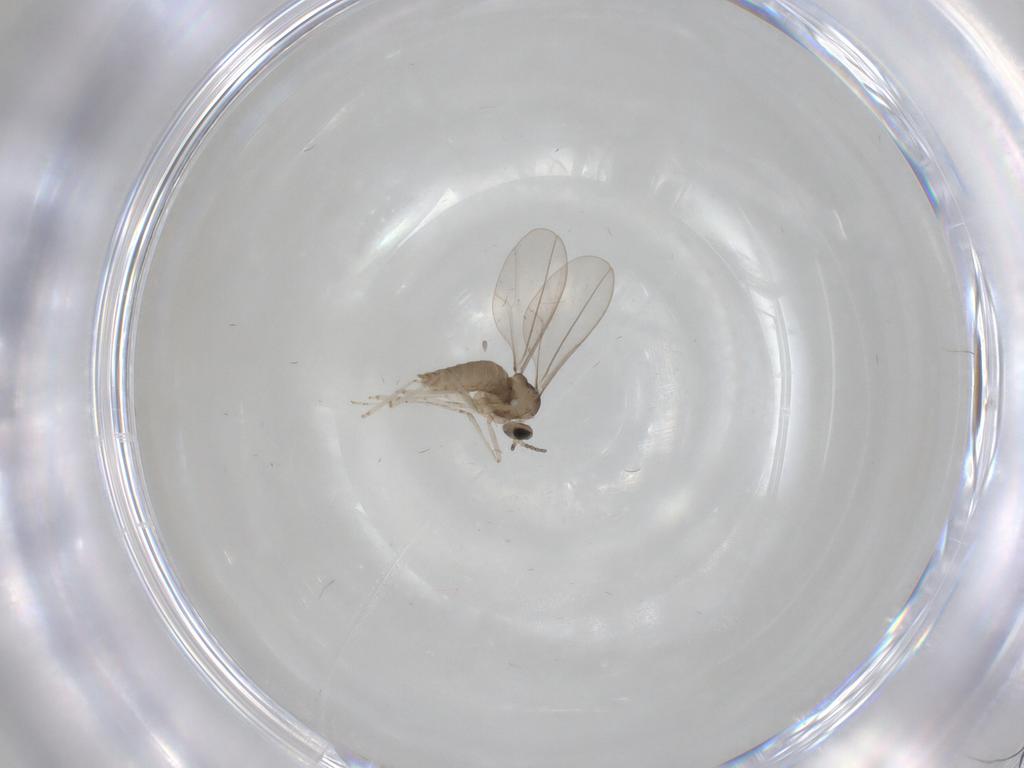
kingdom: Animalia
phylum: Arthropoda
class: Insecta
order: Diptera
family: Cecidomyiidae
